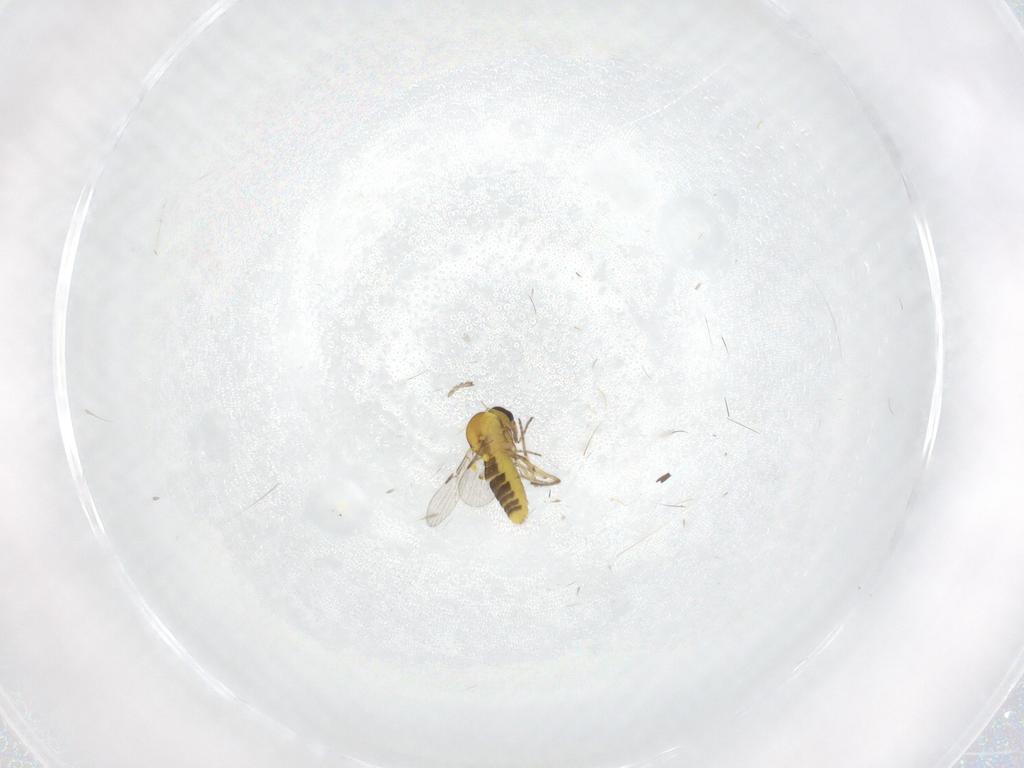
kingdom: Animalia
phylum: Arthropoda
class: Insecta
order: Diptera
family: Cecidomyiidae
